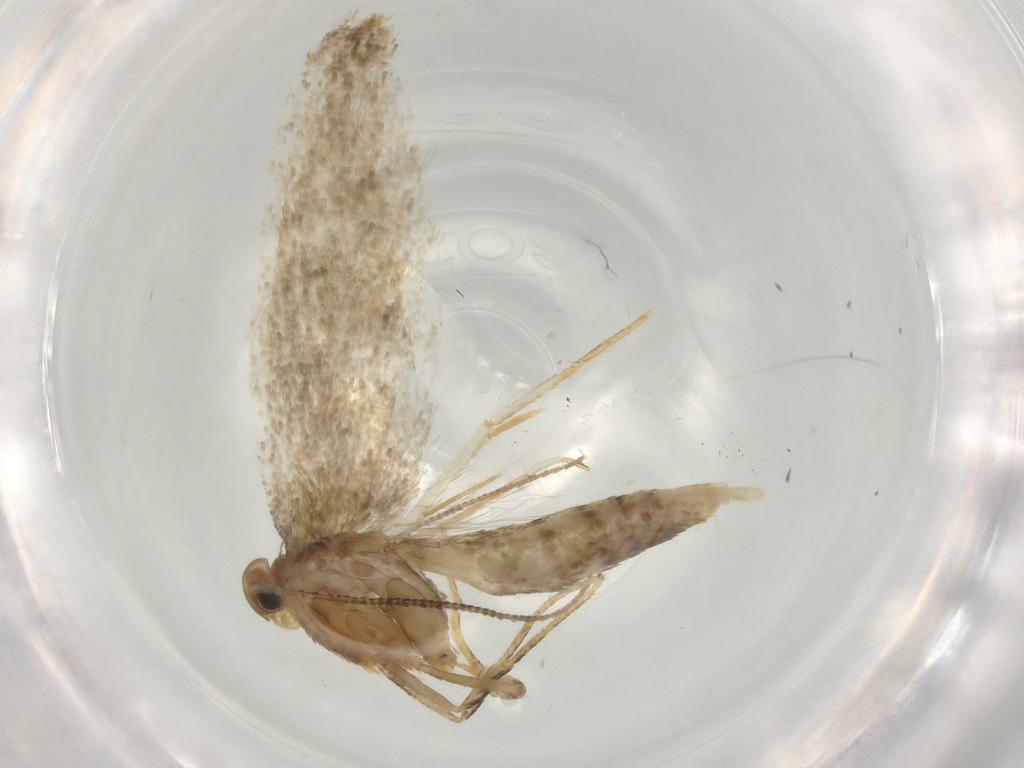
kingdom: Animalia
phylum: Arthropoda
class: Insecta
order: Lepidoptera
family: Oecophoridae
